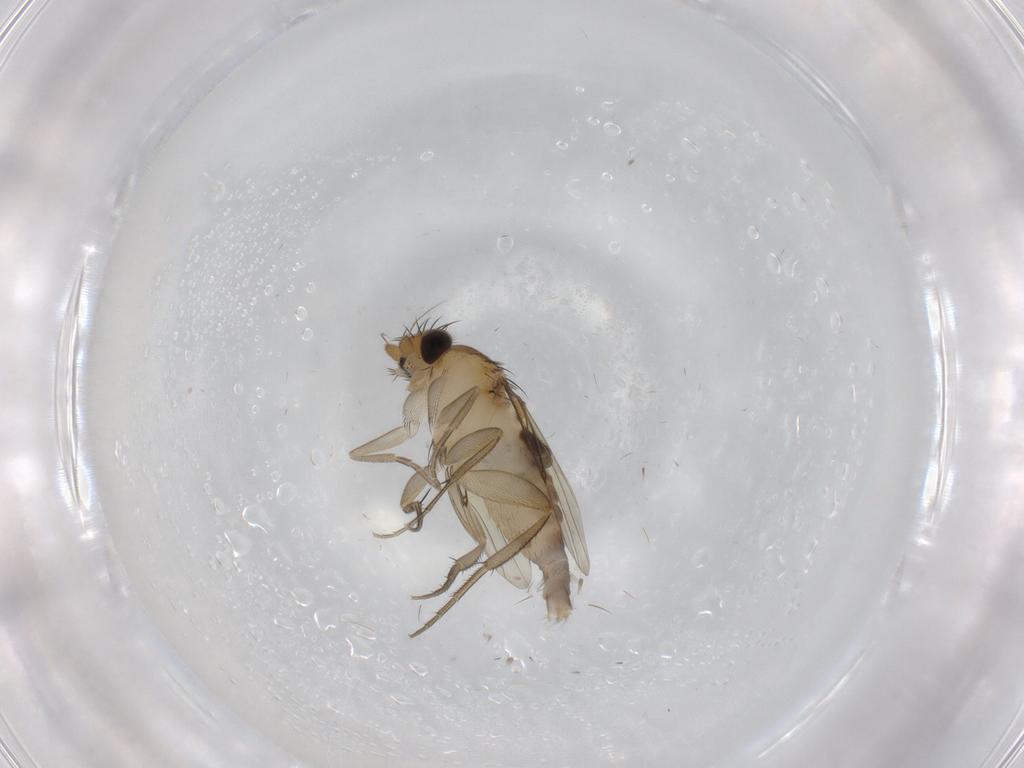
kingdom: Animalia
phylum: Arthropoda
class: Insecta
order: Diptera
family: Phoridae
